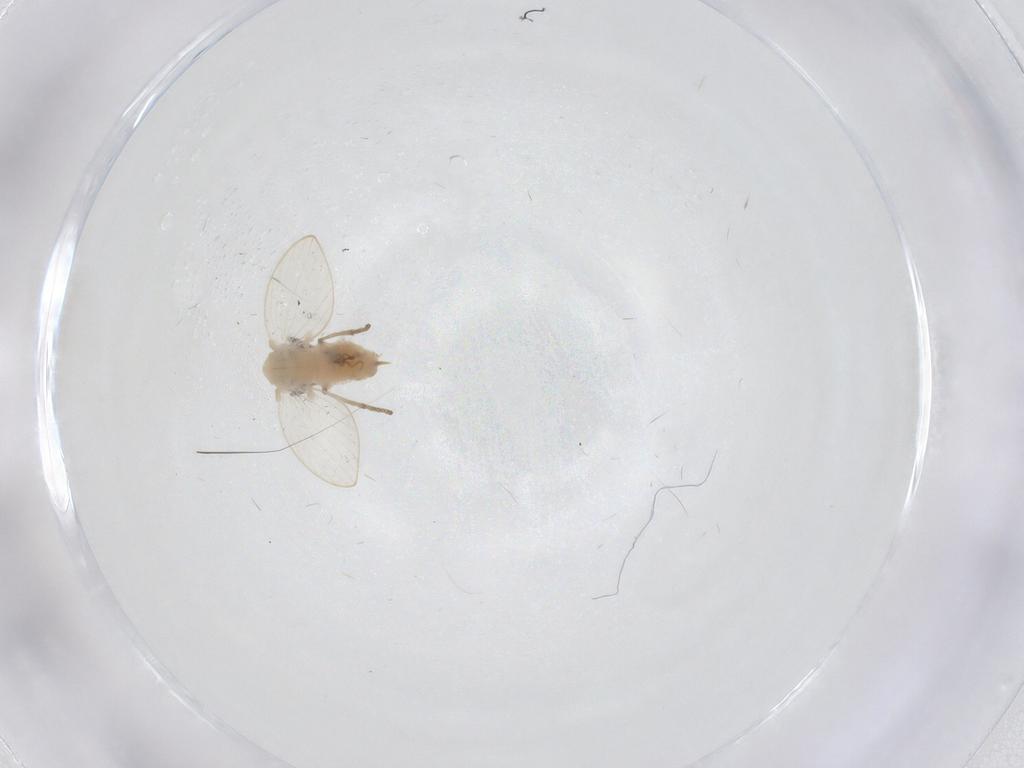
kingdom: Animalia
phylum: Arthropoda
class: Insecta
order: Diptera
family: Psychodidae
